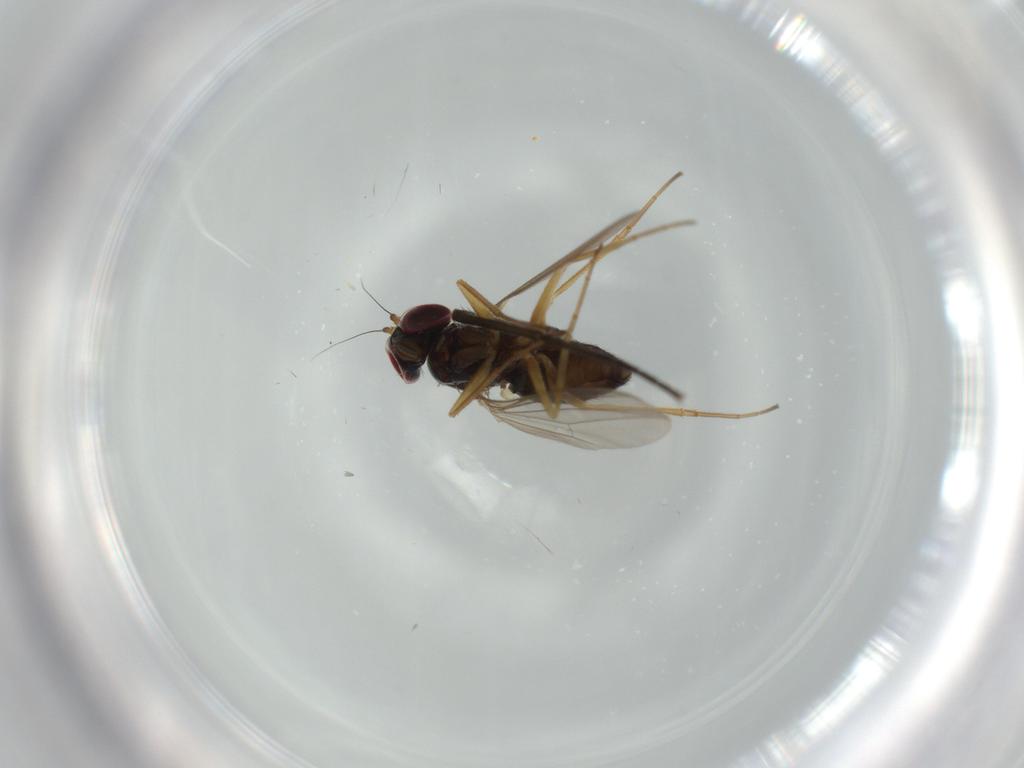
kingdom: Animalia
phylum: Arthropoda
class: Insecta
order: Diptera
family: Sciaridae
